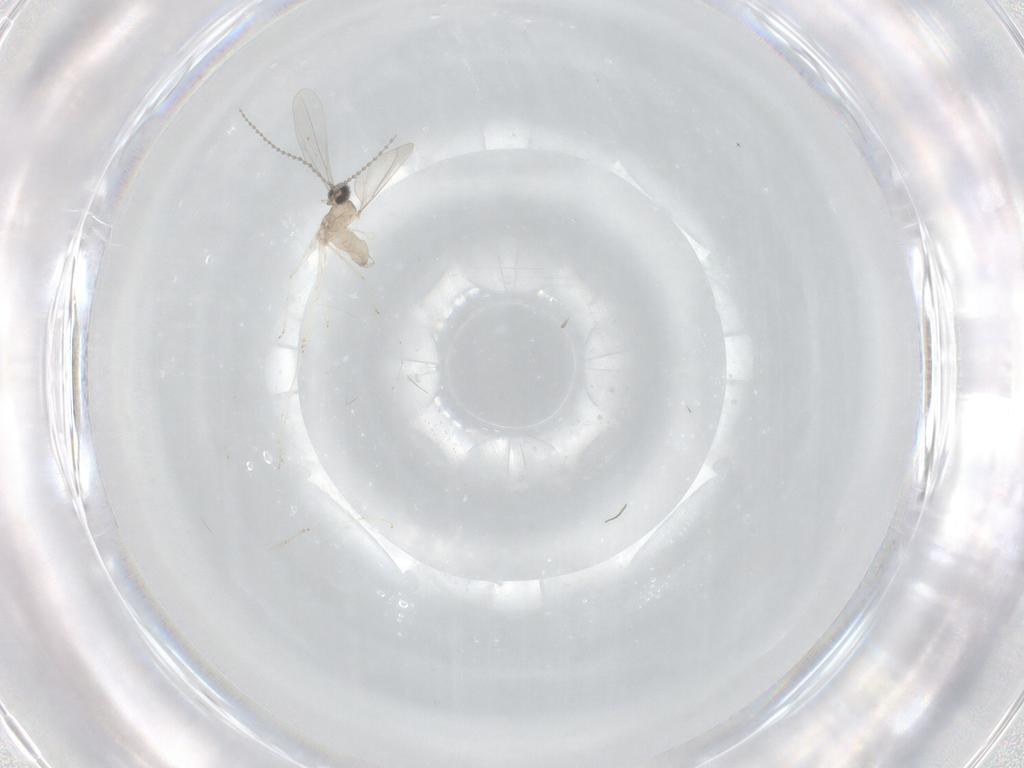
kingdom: Animalia
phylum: Arthropoda
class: Insecta
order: Diptera
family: Cecidomyiidae
